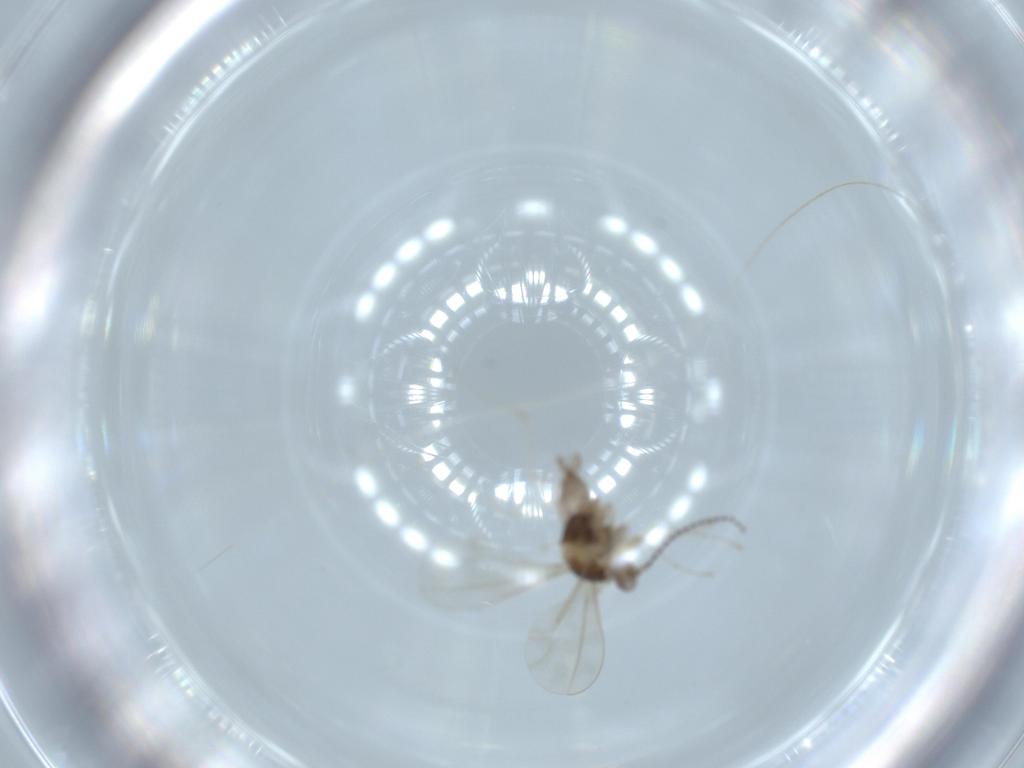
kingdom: Animalia
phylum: Arthropoda
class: Insecta
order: Diptera
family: Cecidomyiidae
